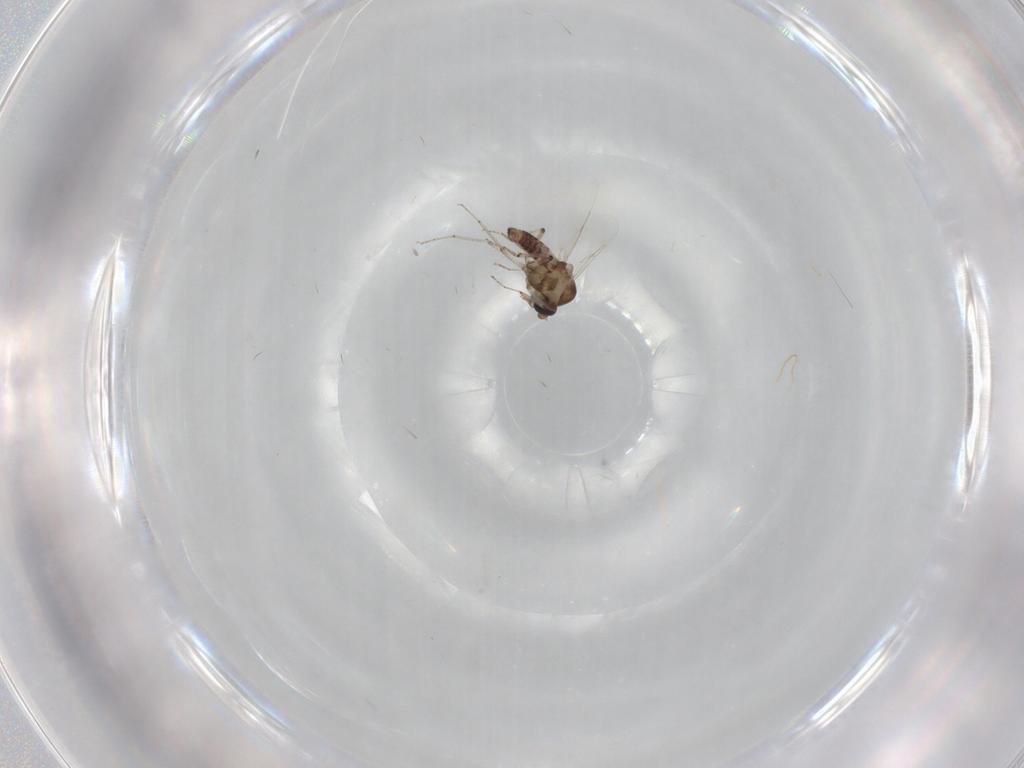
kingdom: Animalia
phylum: Arthropoda
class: Insecta
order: Diptera
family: Ceratopogonidae
